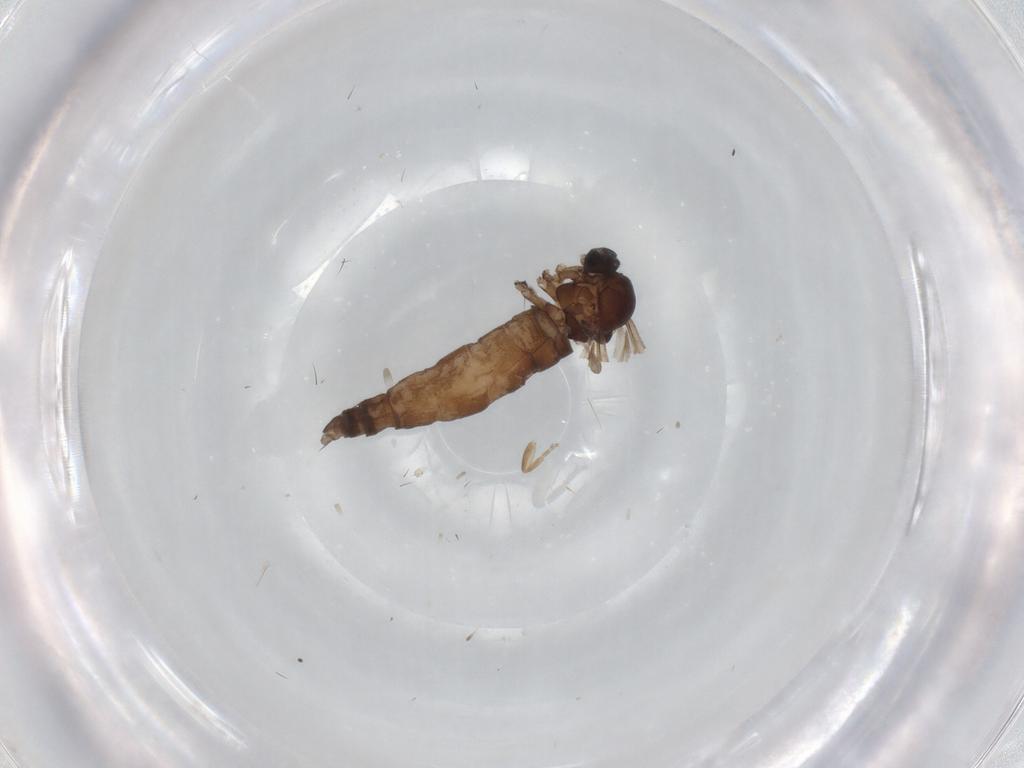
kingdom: Animalia
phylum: Arthropoda
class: Insecta
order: Diptera
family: Sciaridae
